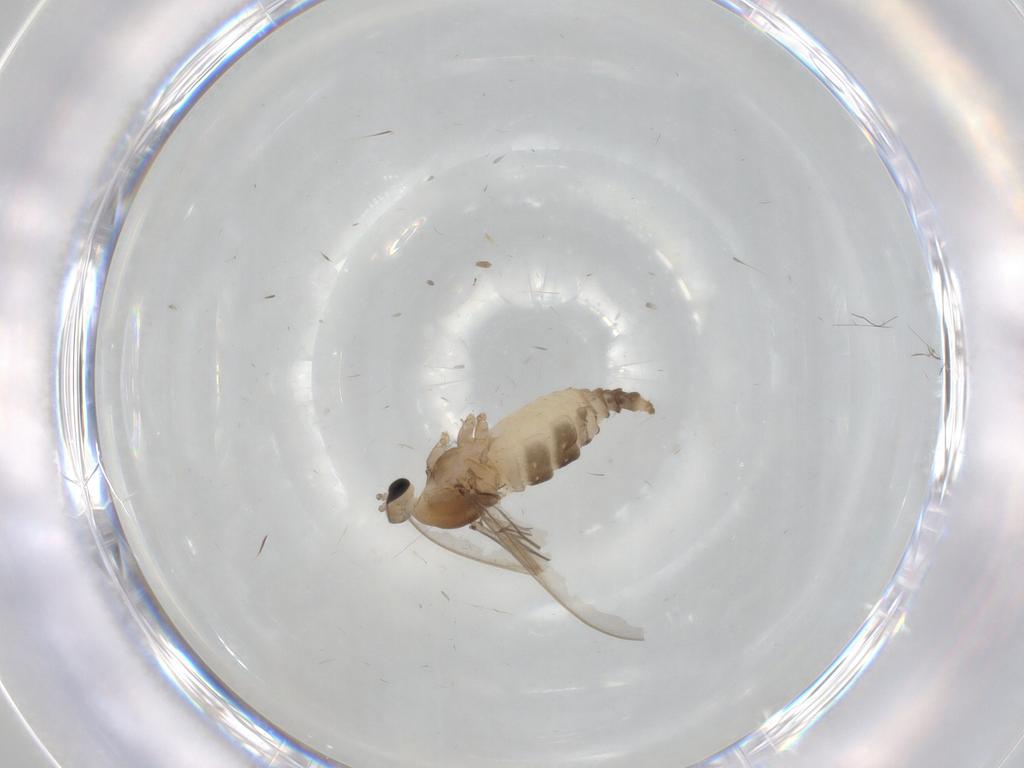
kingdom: Animalia
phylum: Arthropoda
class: Insecta
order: Diptera
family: Cecidomyiidae
